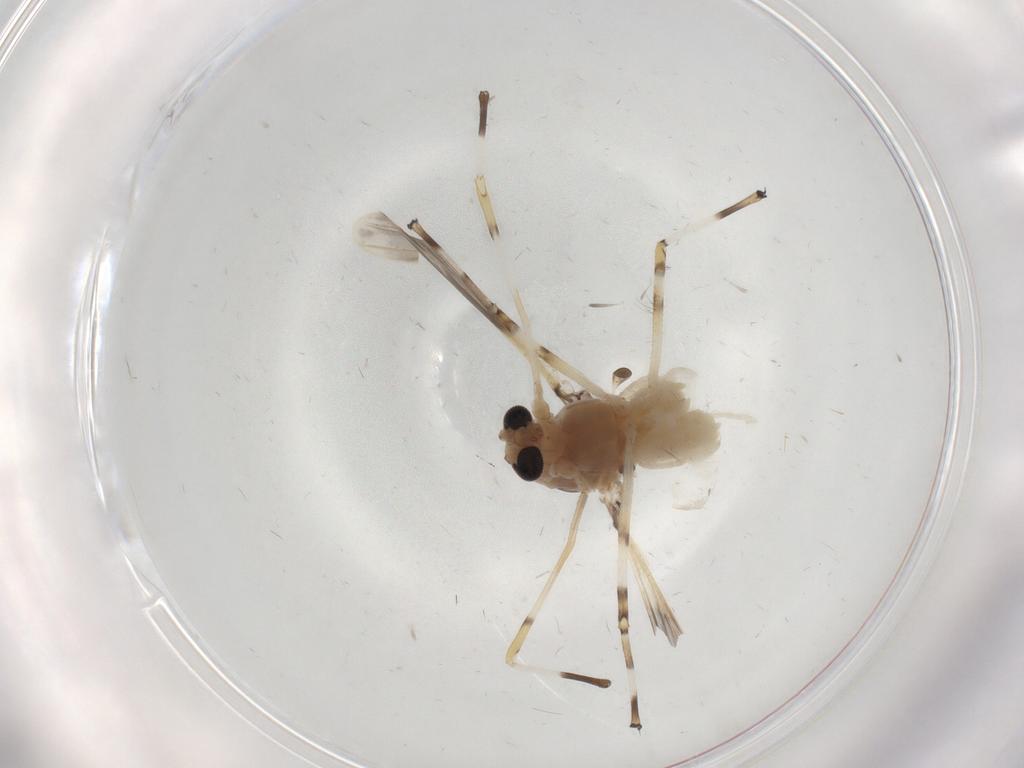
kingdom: Animalia
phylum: Arthropoda
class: Insecta
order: Diptera
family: Chironomidae
